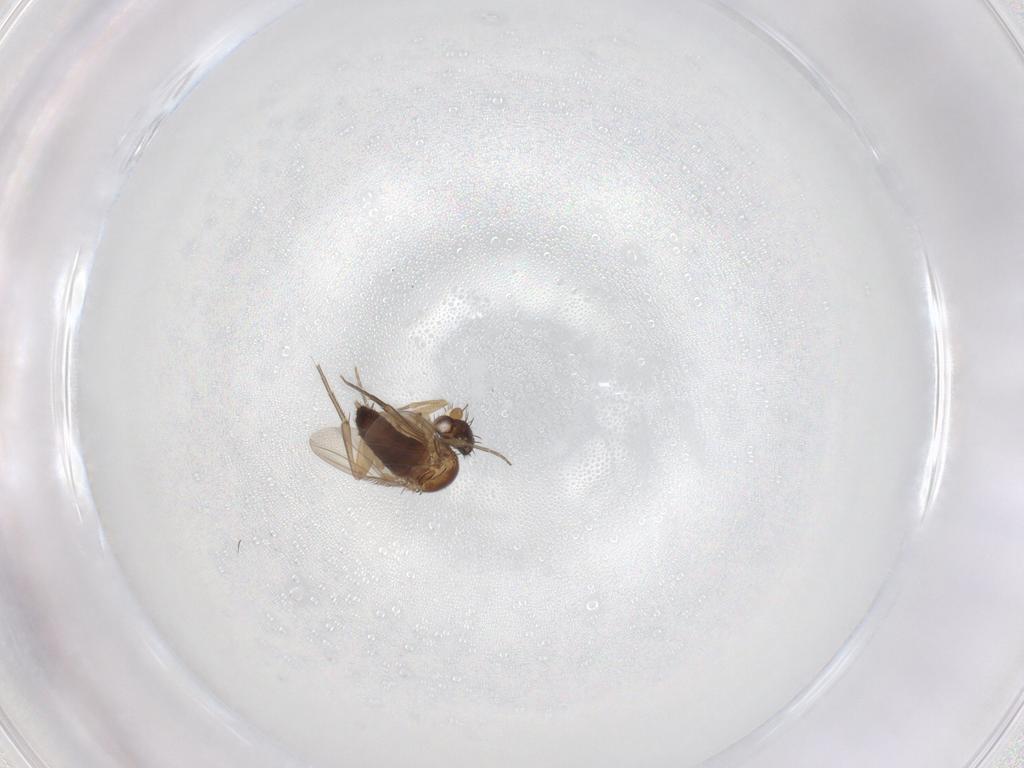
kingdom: Animalia
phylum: Arthropoda
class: Insecta
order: Diptera
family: Phoridae
